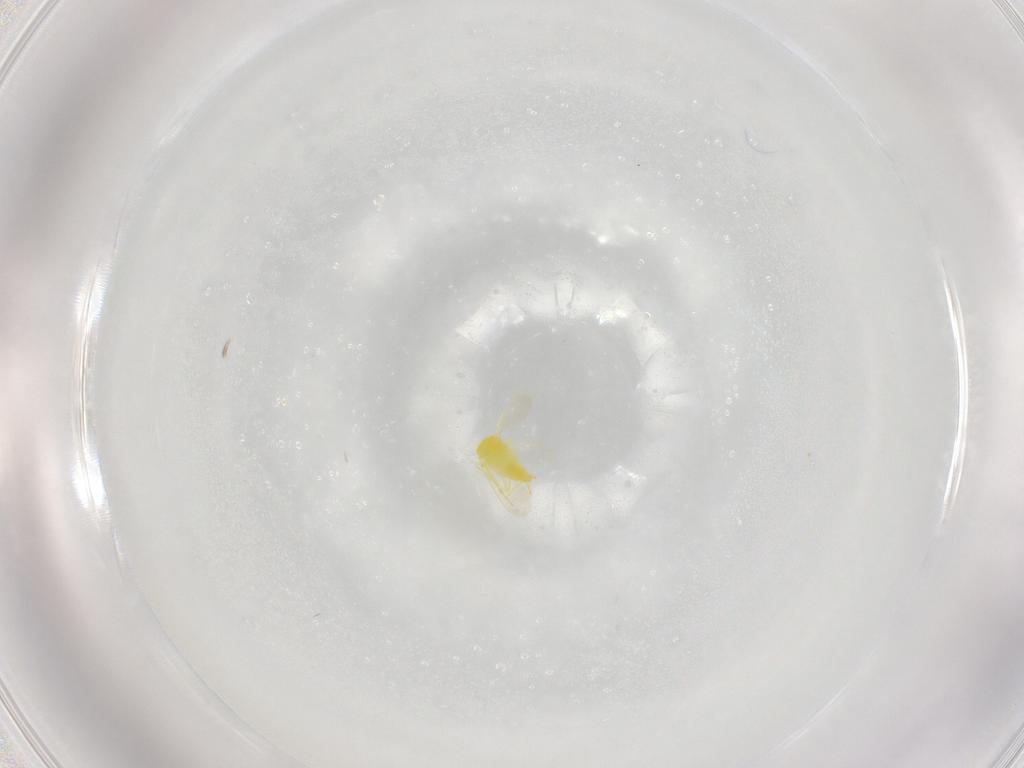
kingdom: Animalia
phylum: Arthropoda
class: Insecta
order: Hemiptera
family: Aleyrodidae
